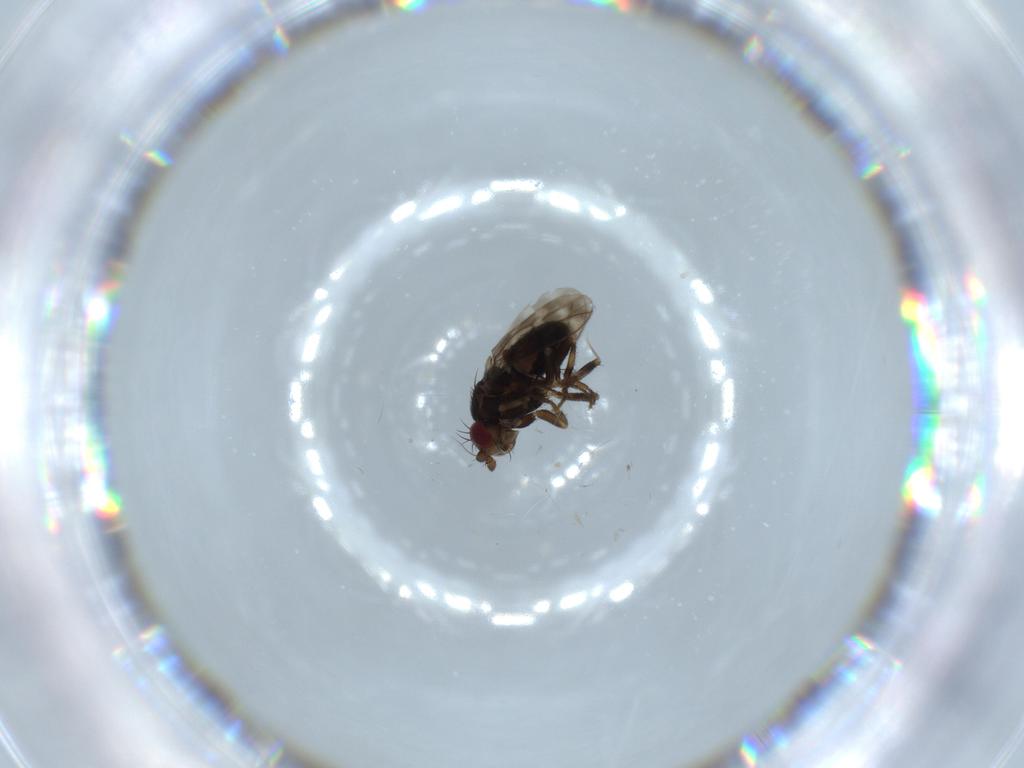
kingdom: Animalia
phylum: Arthropoda
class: Insecta
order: Diptera
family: Sphaeroceridae
